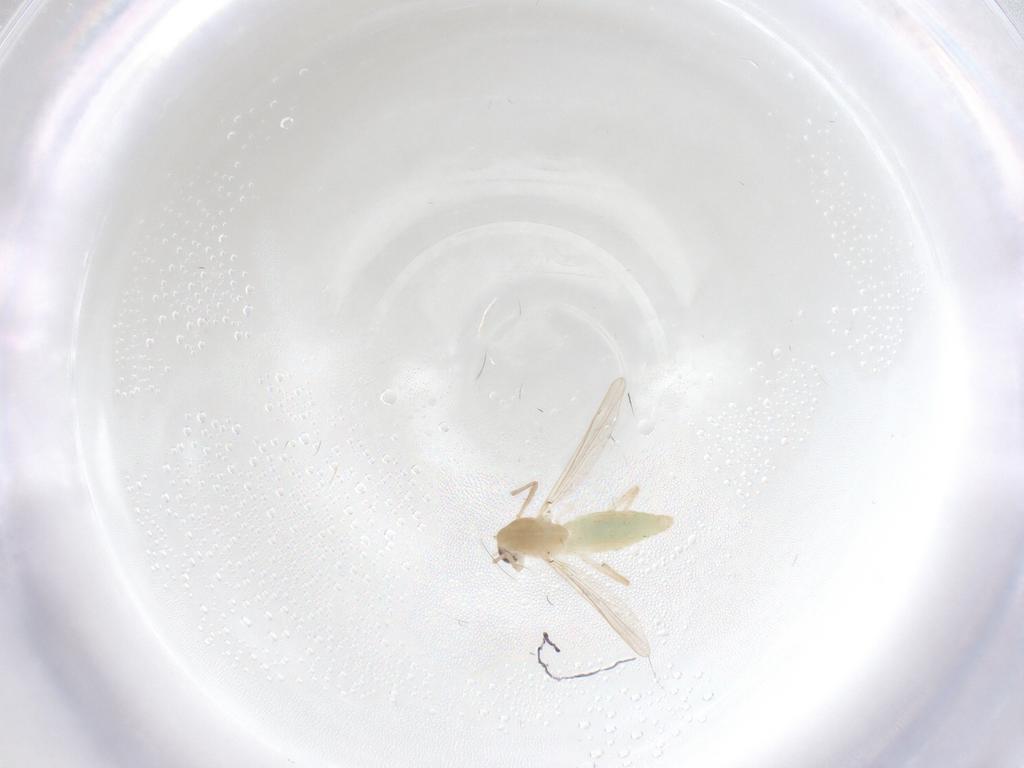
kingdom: Animalia
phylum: Arthropoda
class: Insecta
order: Diptera
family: Chironomidae
